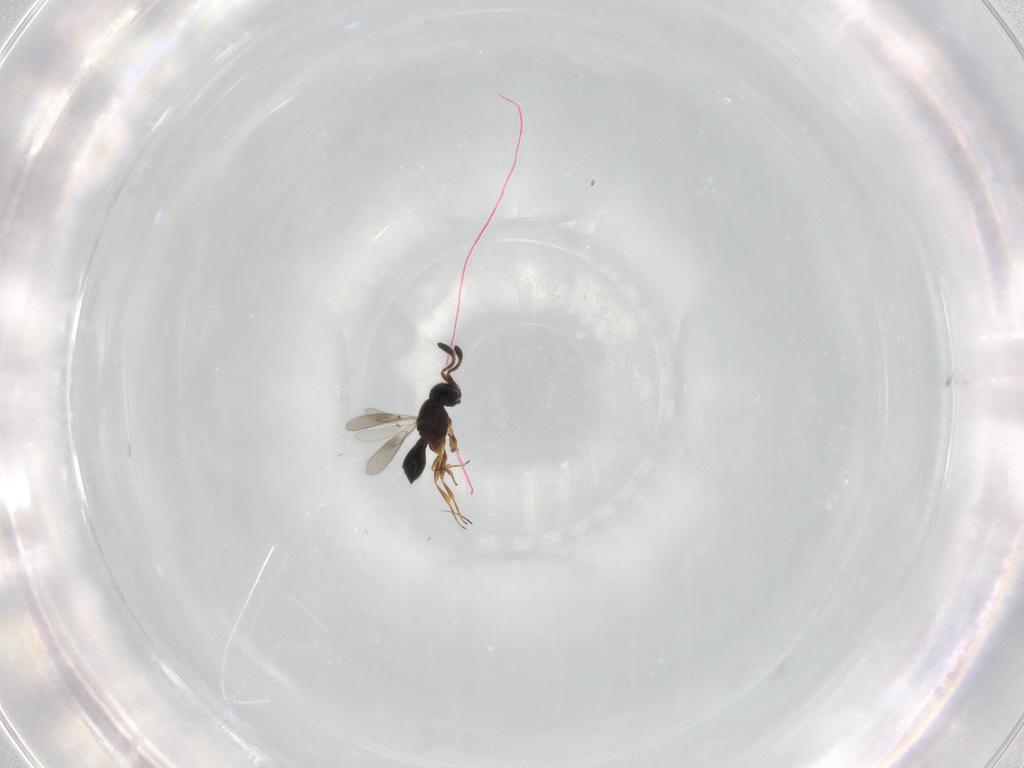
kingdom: Animalia
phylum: Arthropoda
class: Insecta
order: Hymenoptera
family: Scelionidae
